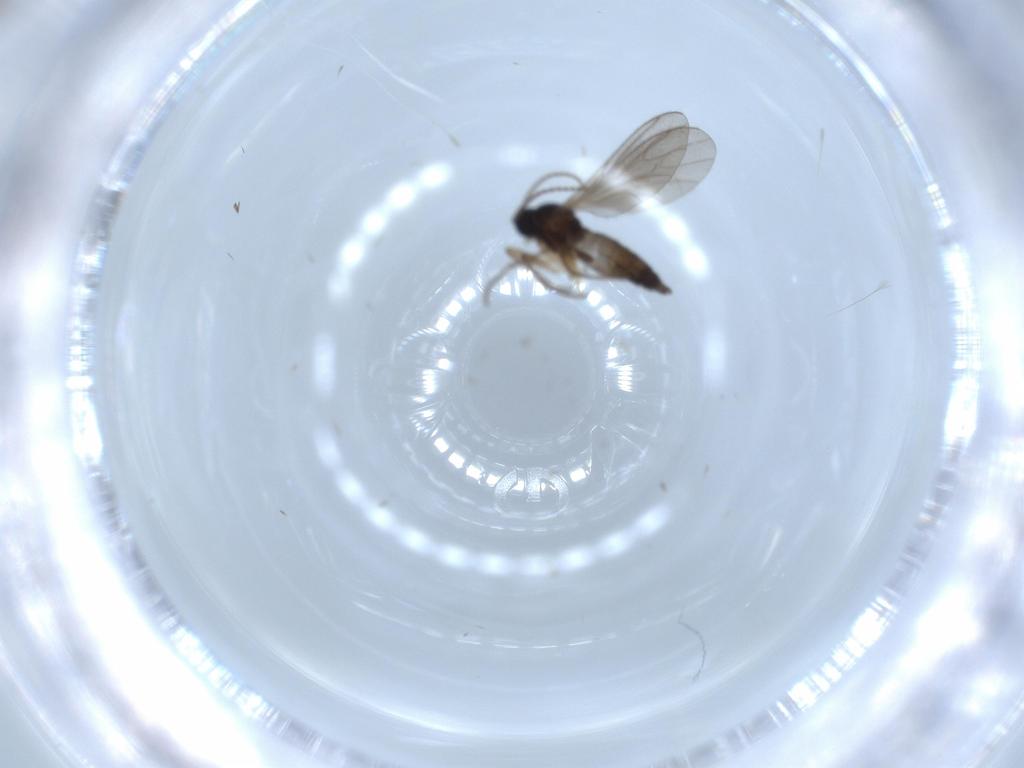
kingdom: Animalia
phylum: Arthropoda
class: Insecta
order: Diptera
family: Sciaridae
